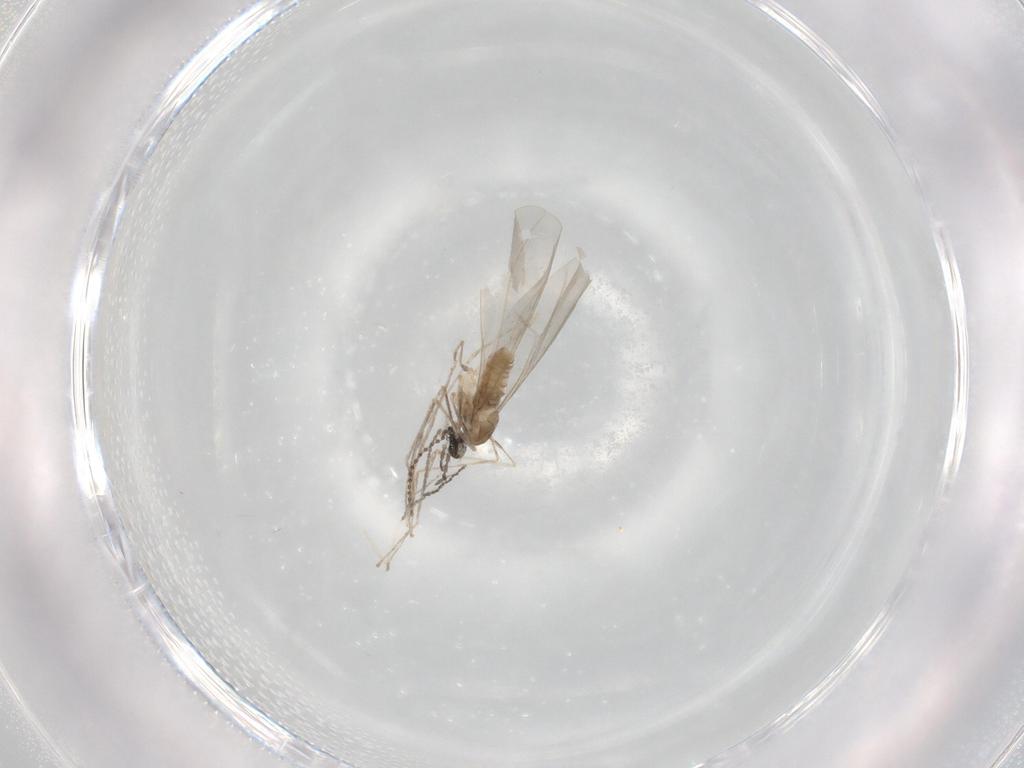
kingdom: Animalia
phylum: Arthropoda
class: Insecta
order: Diptera
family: Cecidomyiidae
